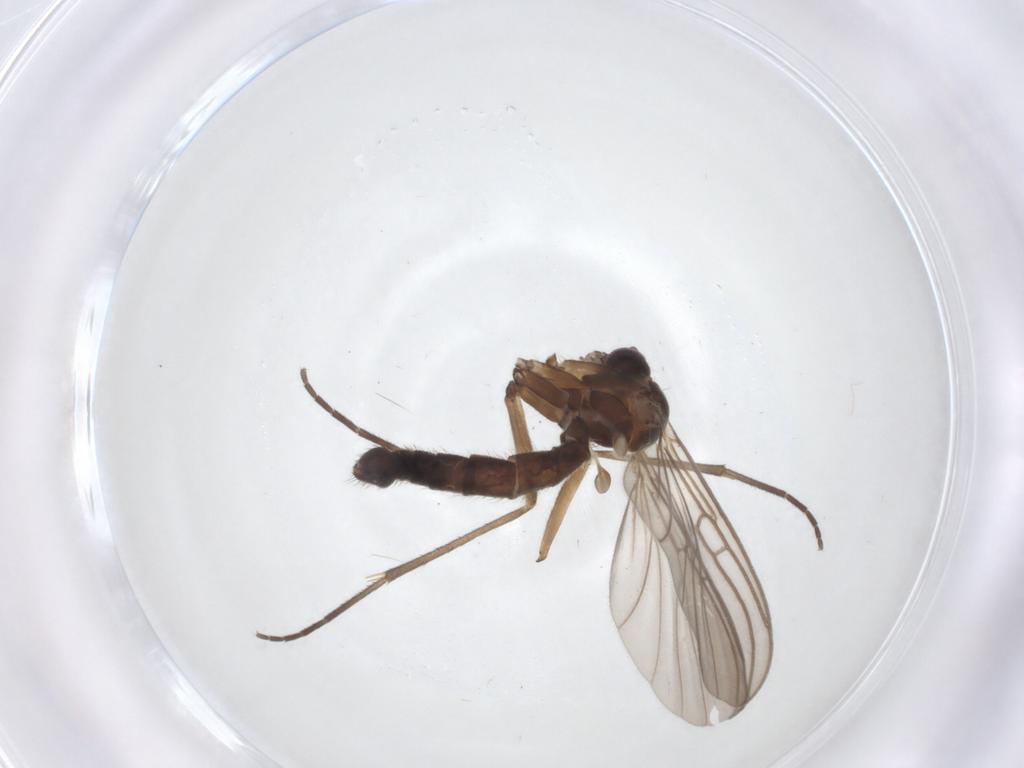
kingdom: Animalia
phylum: Arthropoda
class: Insecta
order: Diptera
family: Mycetophilidae
